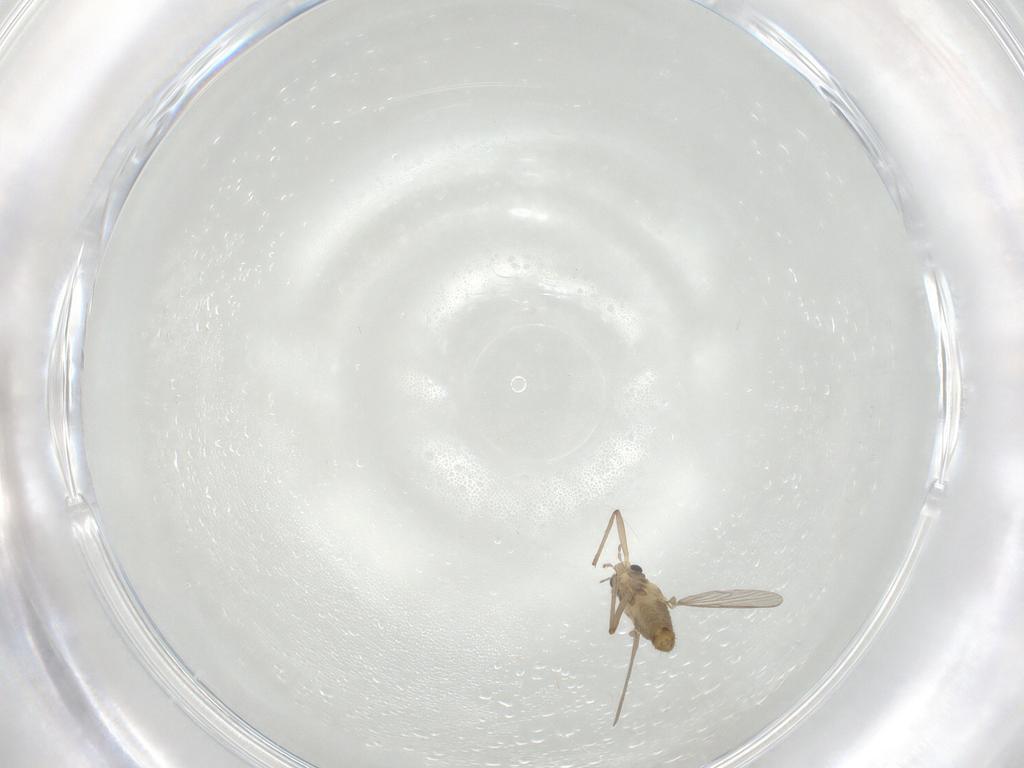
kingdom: Animalia
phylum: Arthropoda
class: Insecta
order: Diptera
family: Chironomidae
